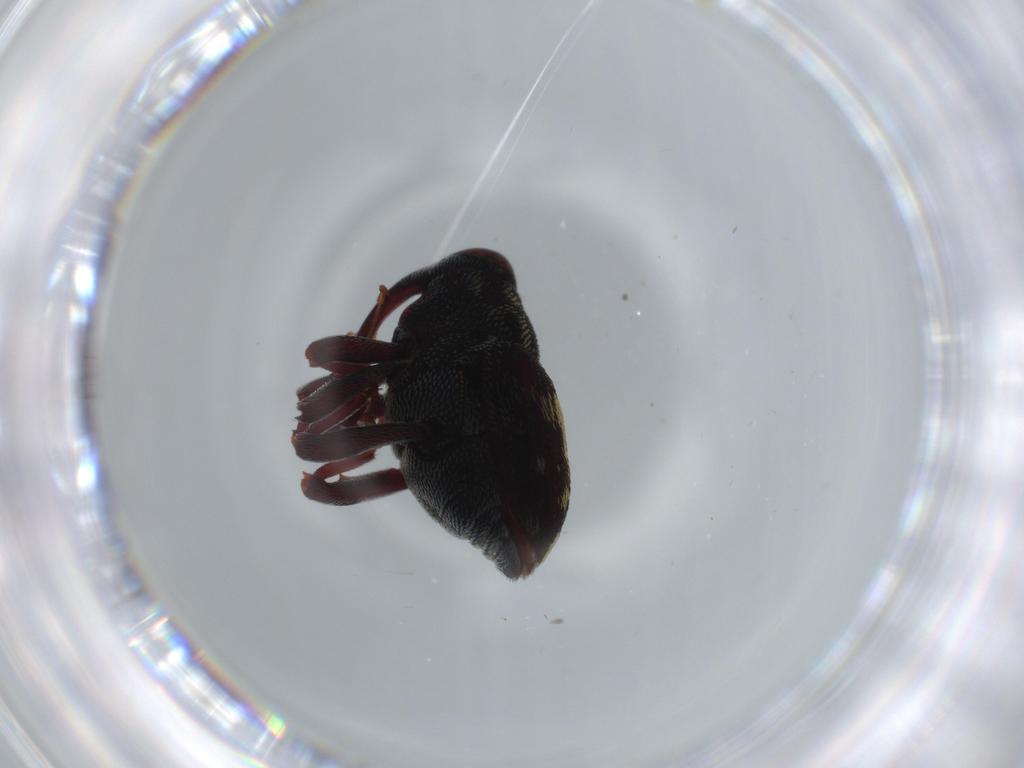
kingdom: Animalia
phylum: Arthropoda
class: Insecta
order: Coleoptera
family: Curculionidae
